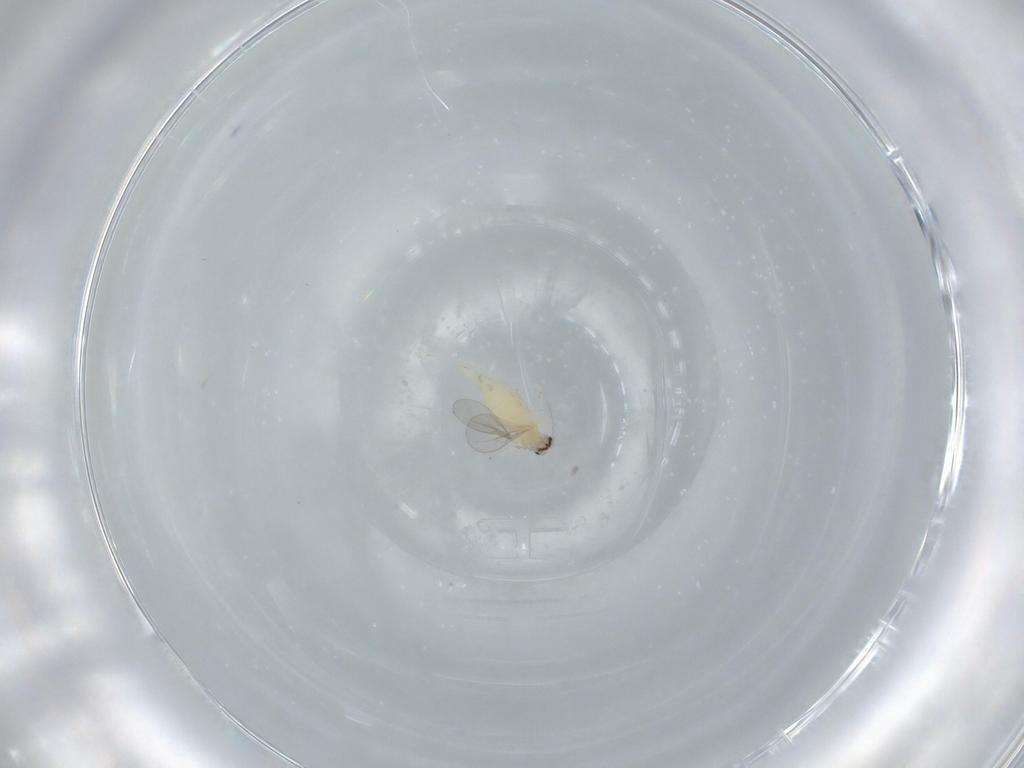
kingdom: Animalia
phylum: Arthropoda
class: Insecta
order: Diptera
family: Cecidomyiidae
